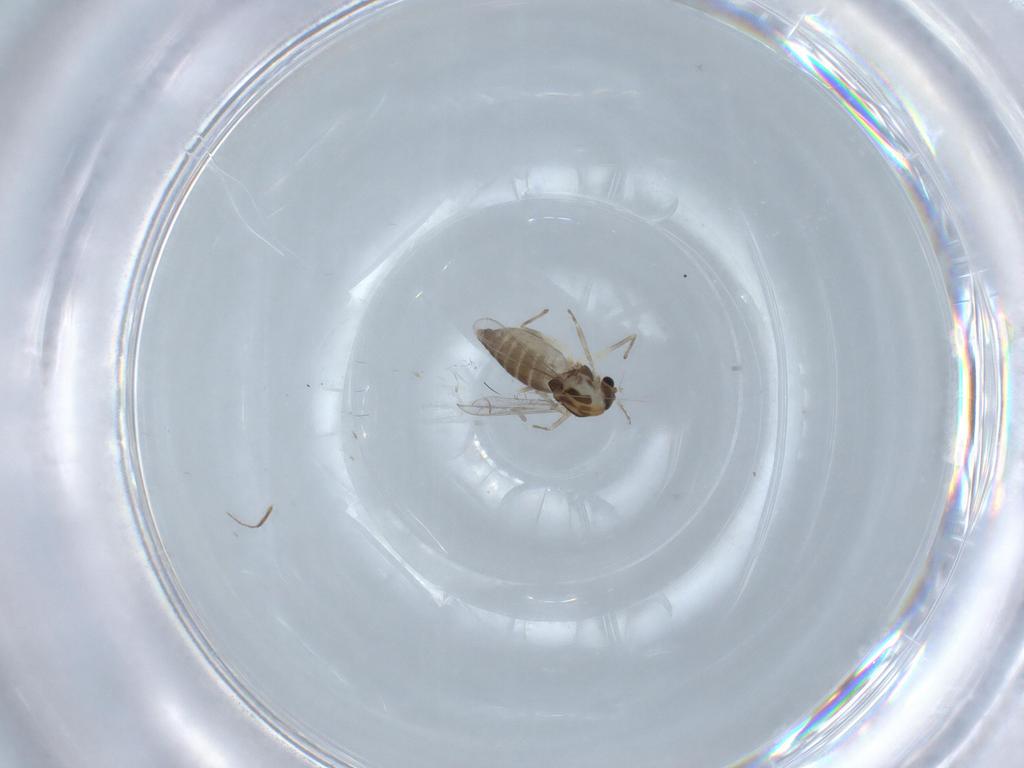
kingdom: Animalia
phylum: Arthropoda
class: Insecta
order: Diptera
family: Chironomidae
